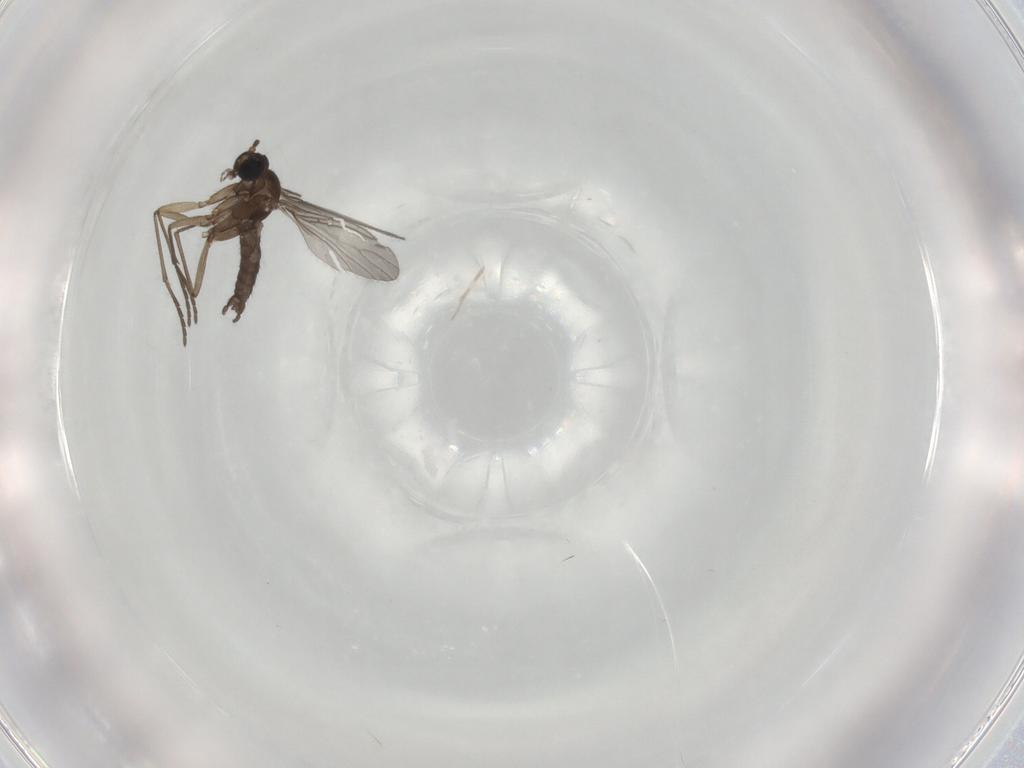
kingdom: Animalia
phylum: Arthropoda
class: Insecta
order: Diptera
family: Sciaridae
